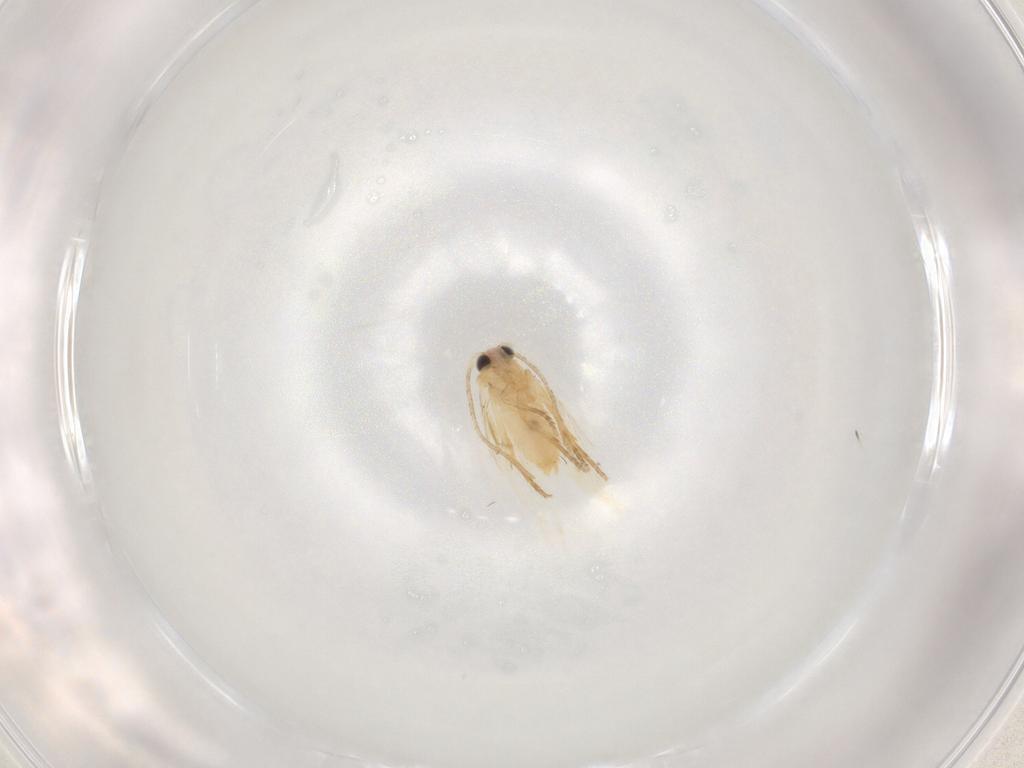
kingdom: Animalia
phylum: Arthropoda
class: Insecta
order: Lepidoptera
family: Nepticulidae
